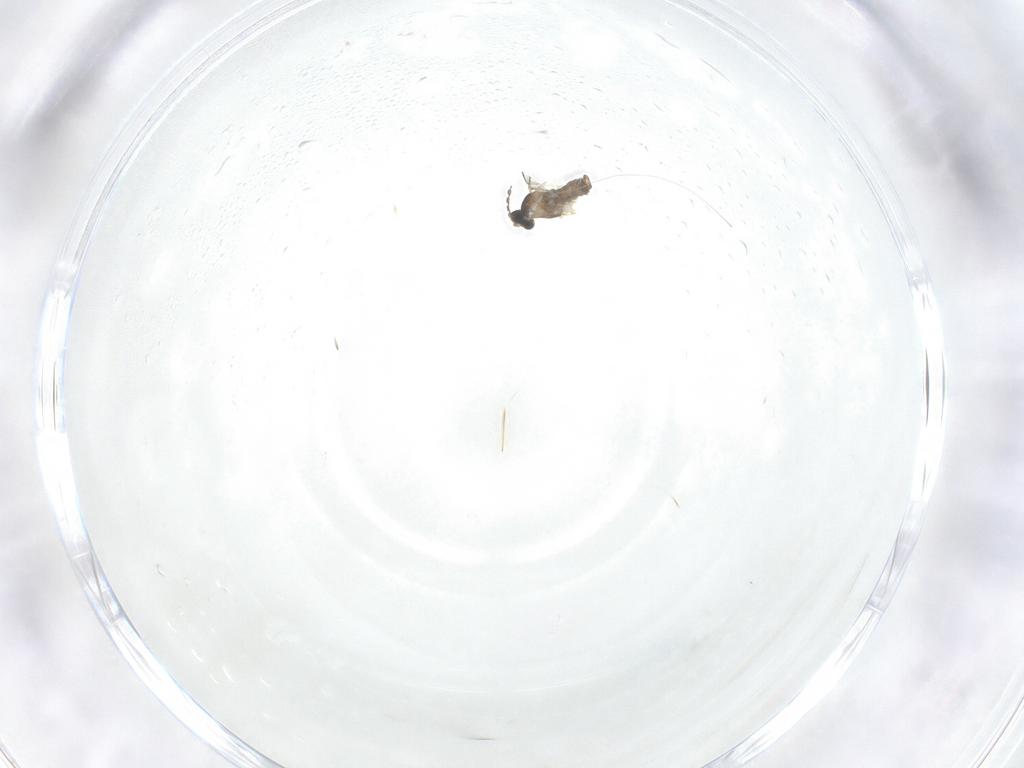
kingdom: Animalia
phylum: Arthropoda
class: Insecta
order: Diptera
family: Cecidomyiidae
